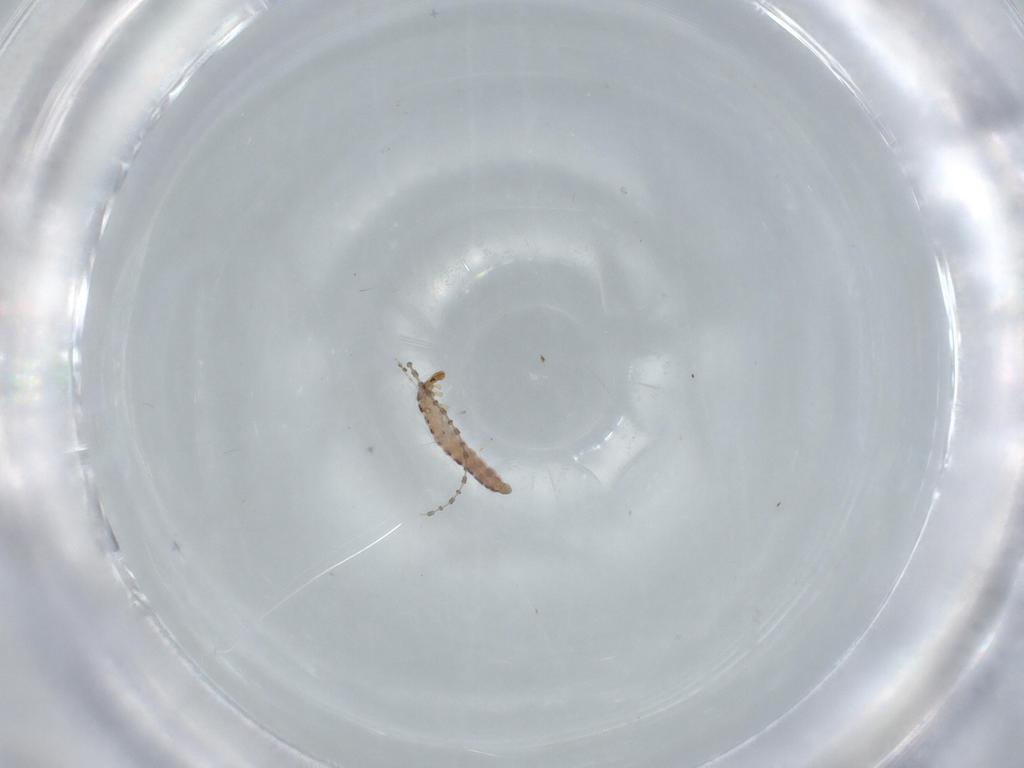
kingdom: Animalia
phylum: Arthropoda
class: Insecta
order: Diptera
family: Cecidomyiidae
